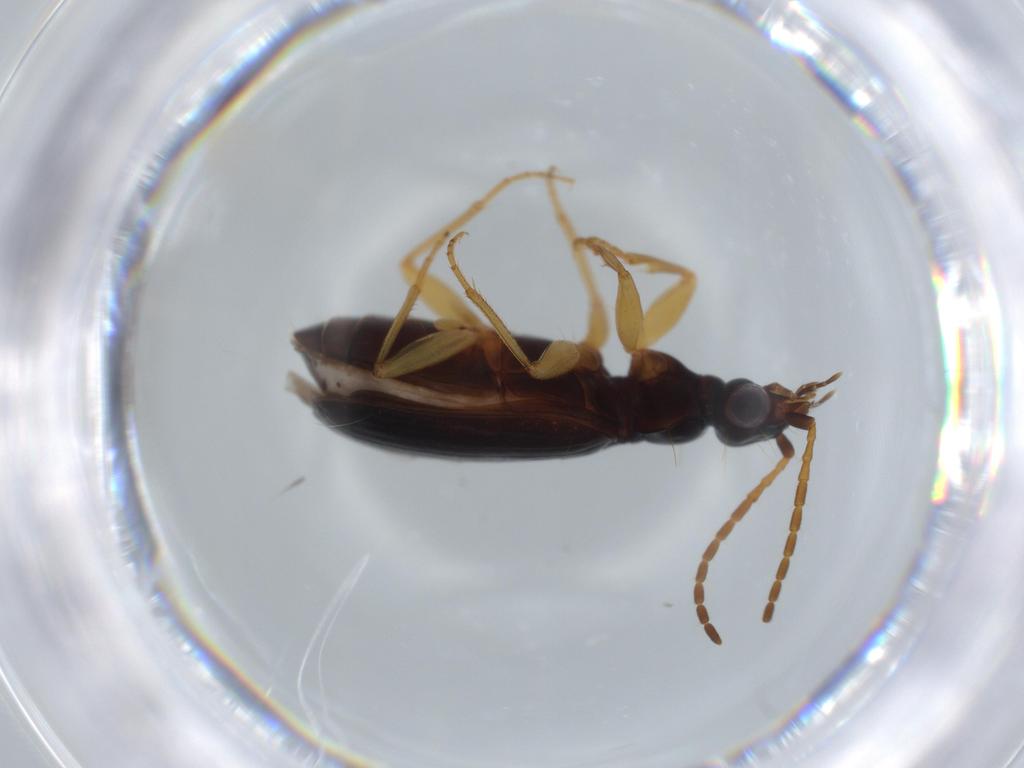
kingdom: Animalia
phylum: Arthropoda
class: Insecta
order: Coleoptera
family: Carabidae
